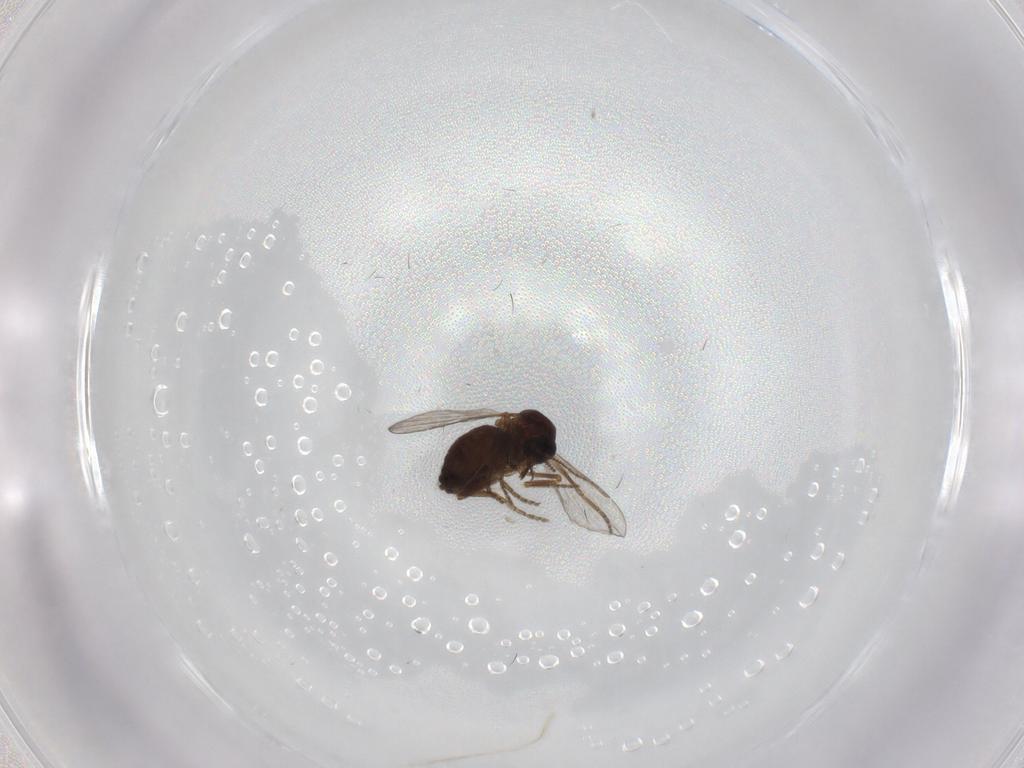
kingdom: Animalia
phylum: Arthropoda
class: Insecta
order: Diptera
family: Ceratopogonidae
